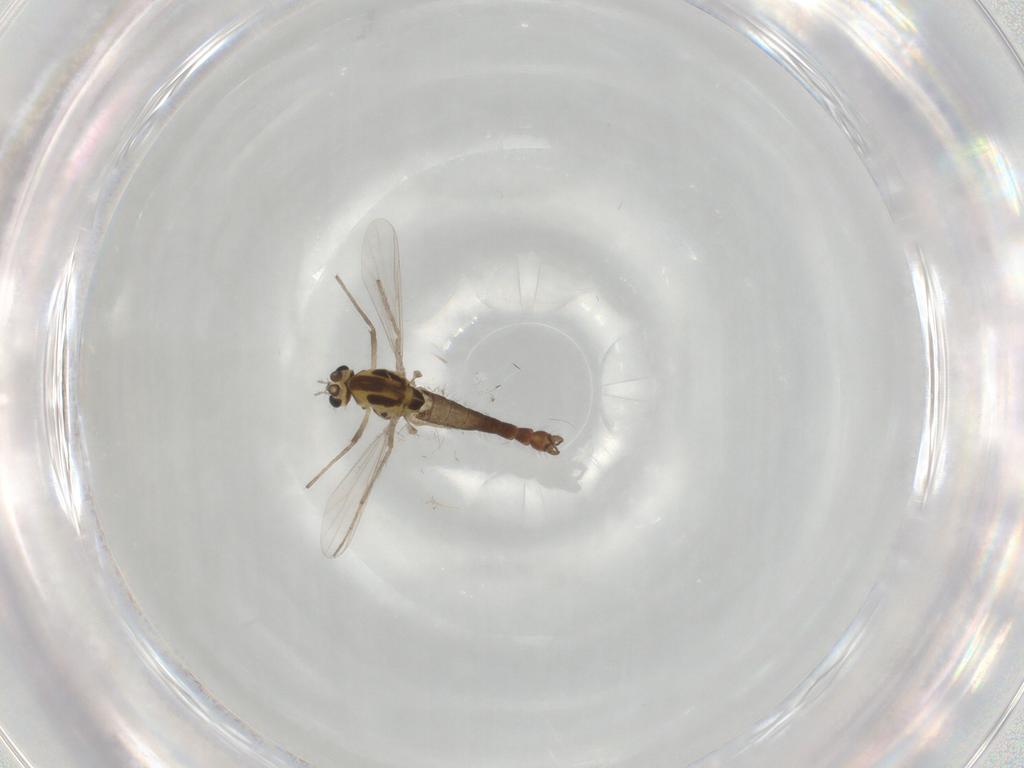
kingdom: Animalia
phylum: Arthropoda
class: Insecta
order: Diptera
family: Chironomidae
